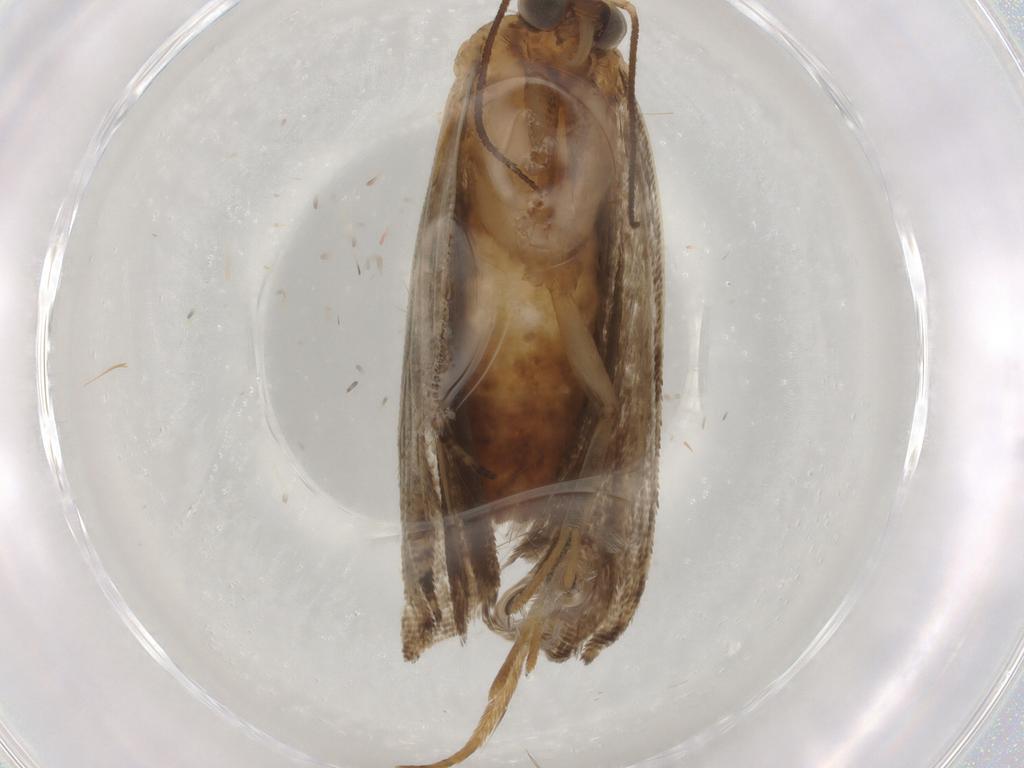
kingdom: Animalia
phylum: Arthropoda
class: Insecta
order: Lepidoptera
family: Tortricidae
